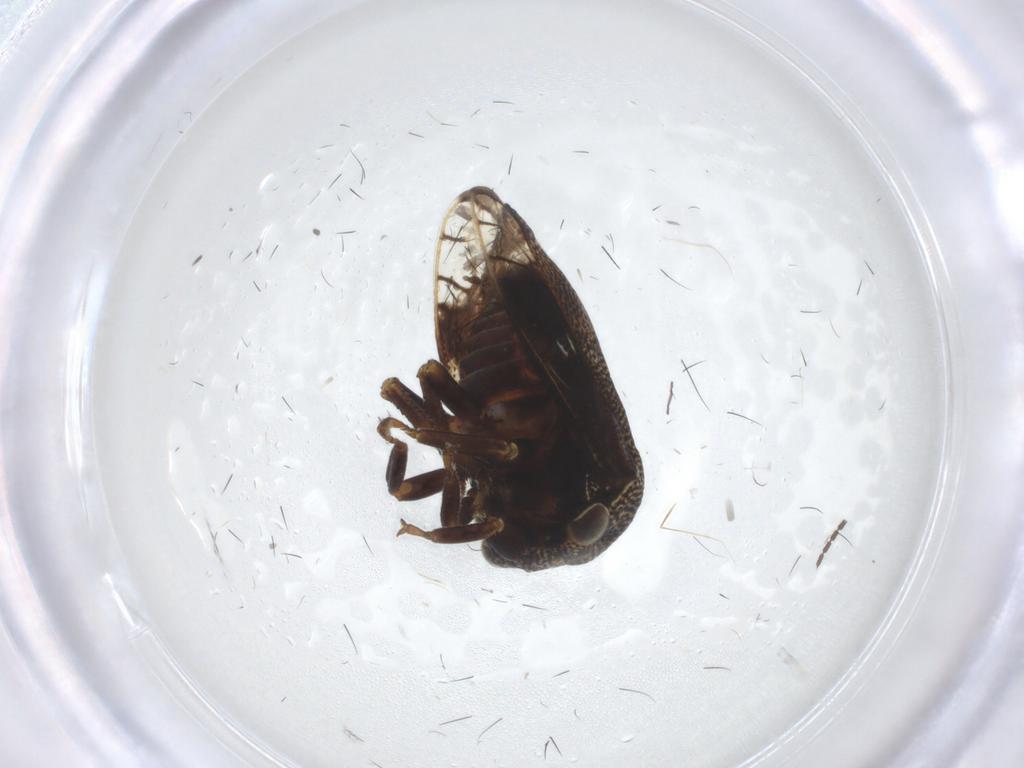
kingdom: Animalia
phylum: Arthropoda
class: Insecta
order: Hemiptera
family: Membracidae
